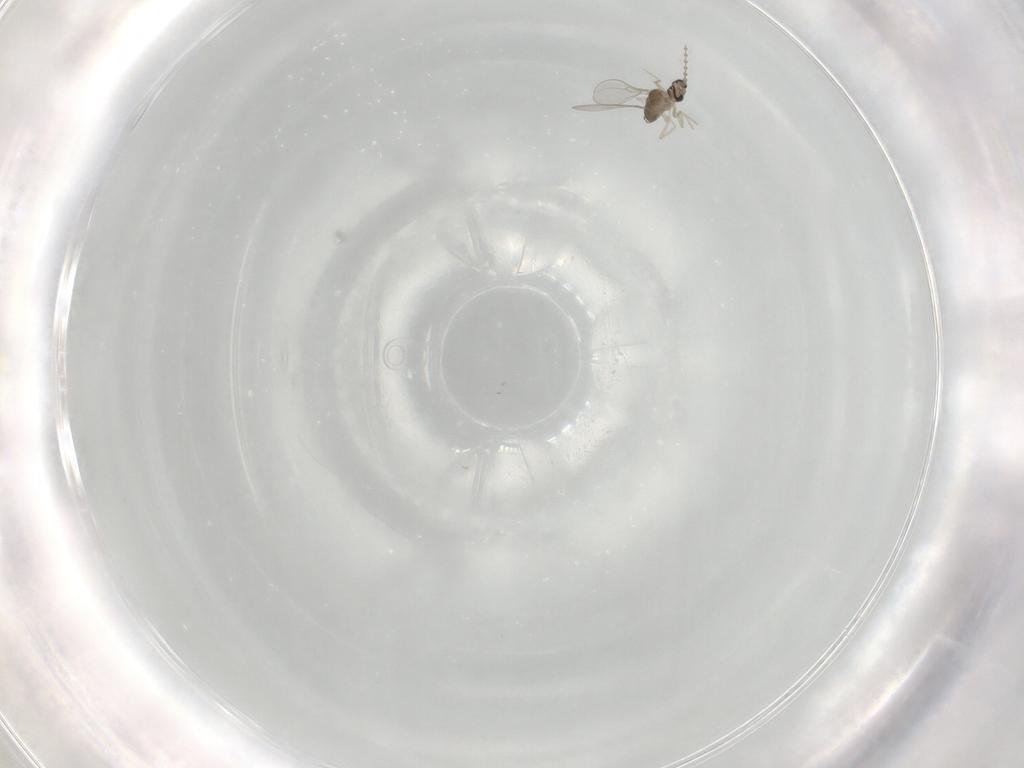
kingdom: Animalia
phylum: Arthropoda
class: Insecta
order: Diptera
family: Cecidomyiidae
